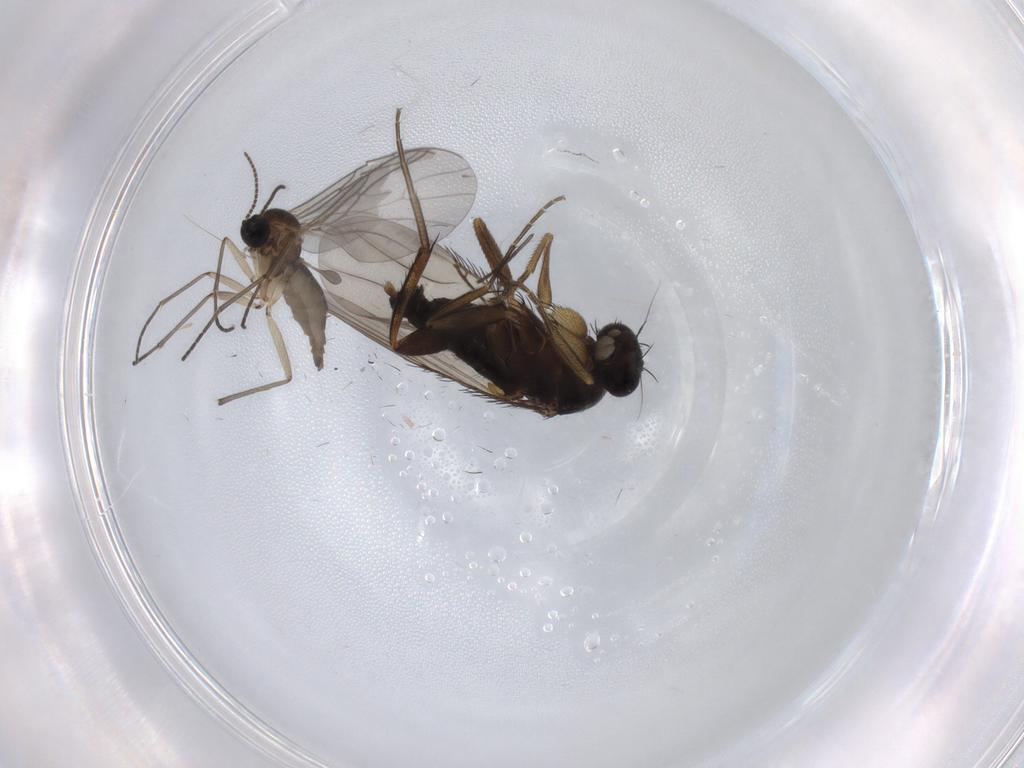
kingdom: Animalia
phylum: Arthropoda
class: Insecta
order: Diptera
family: Phoridae
